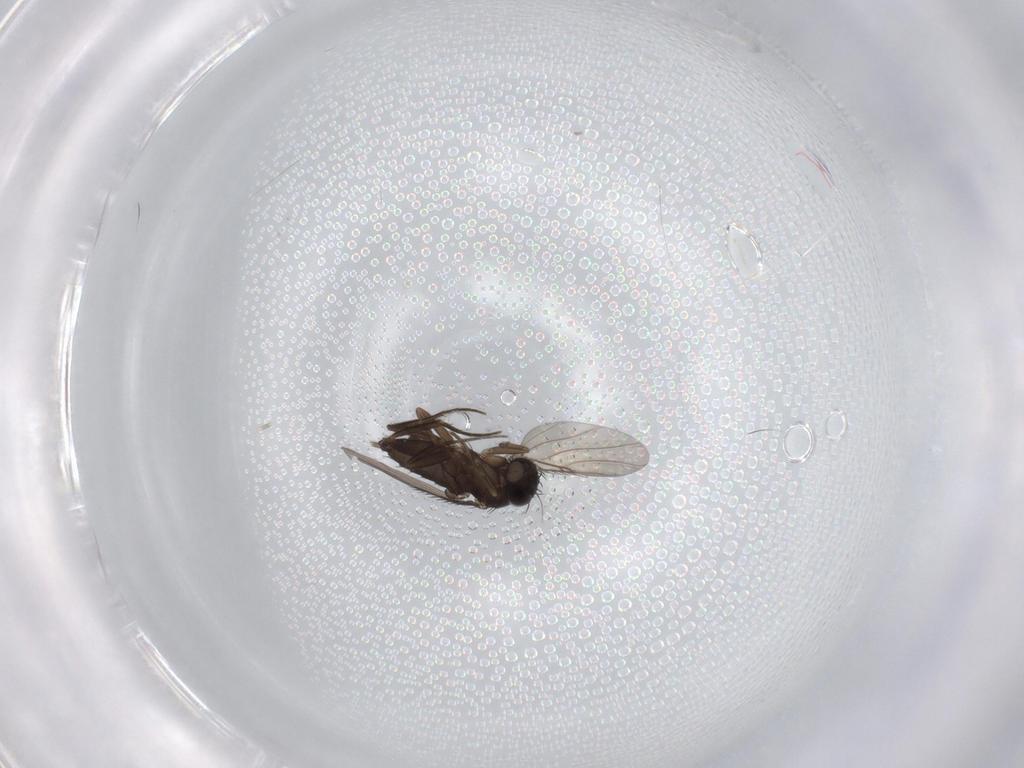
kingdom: Animalia
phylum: Arthropoda
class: Insecta
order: Diptera
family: Phoridae
